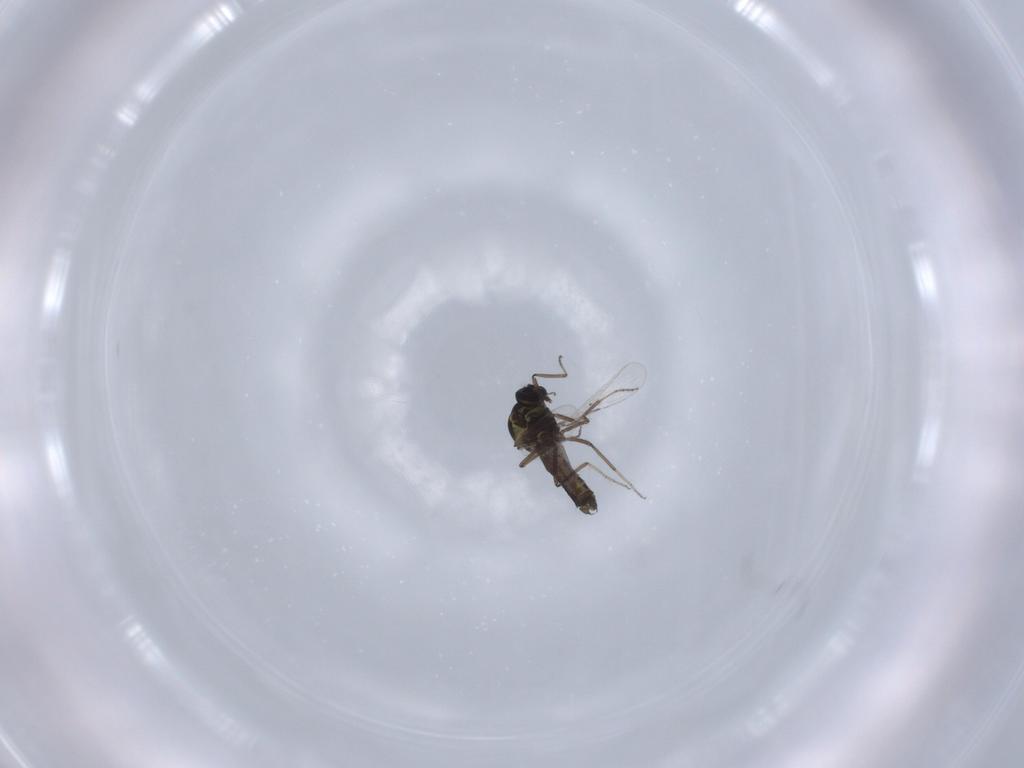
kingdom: Animalia
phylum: Arthropoda
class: Insecta
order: Diptera
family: Ceratopogonidae
